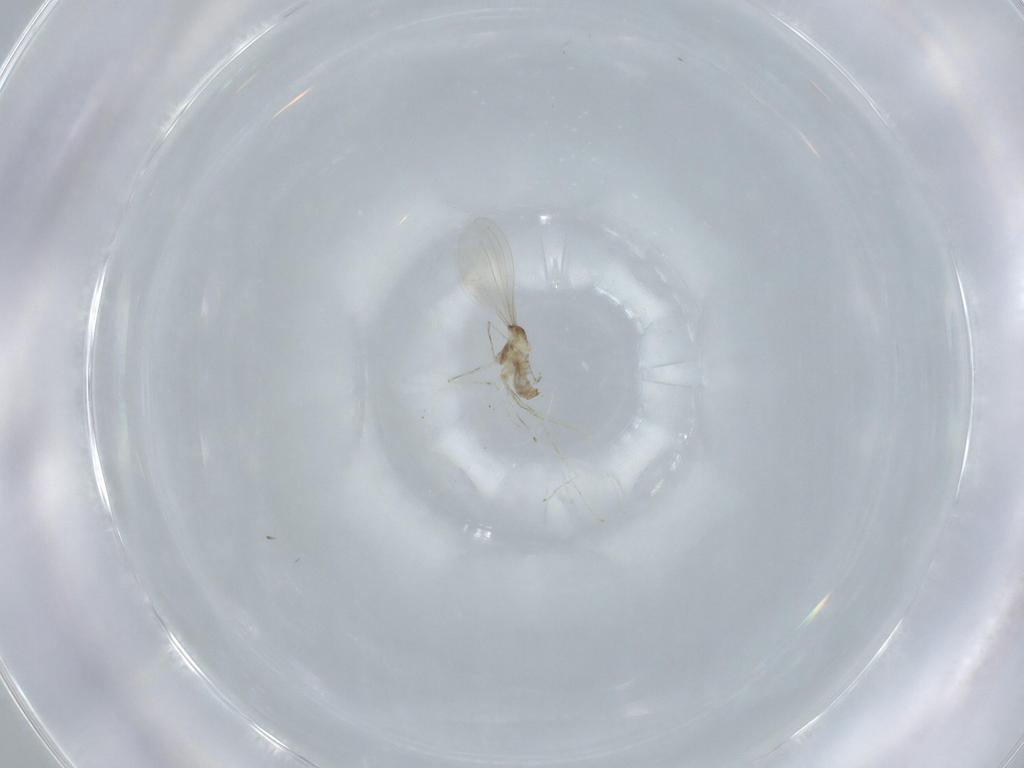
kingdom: Animalia
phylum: Arthropoda
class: Insecta
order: Diptera
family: Cecidomyiidae
